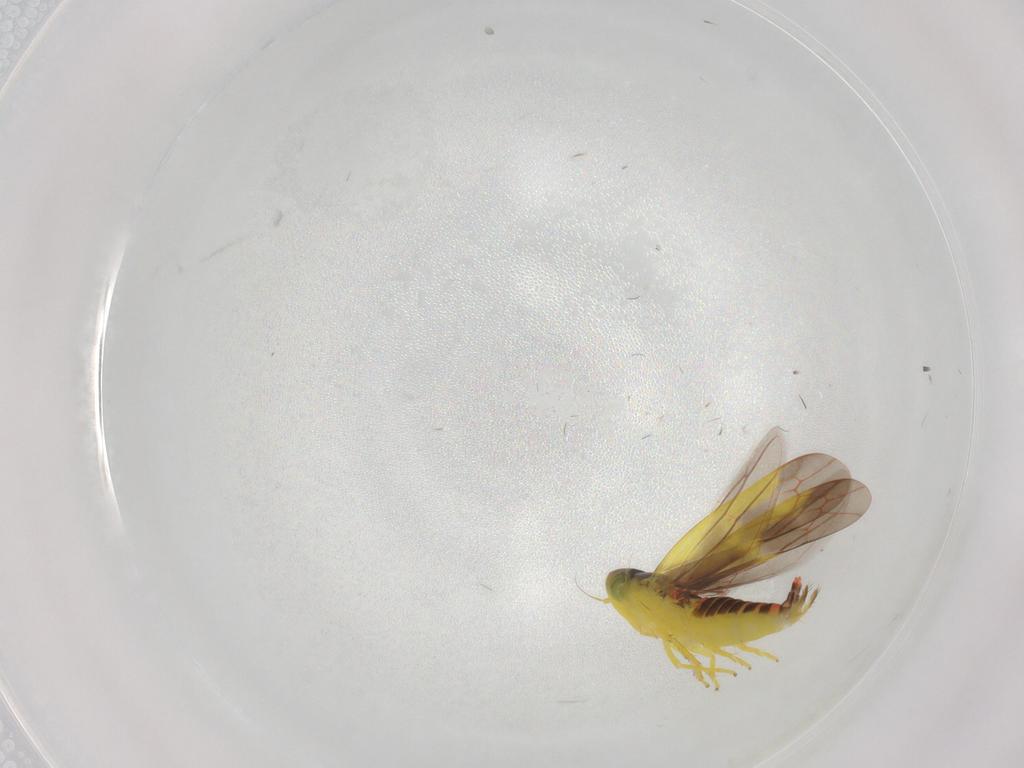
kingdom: Animalia
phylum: Arthropoda
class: Insecta
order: Hemiptera
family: Cicadellidae
